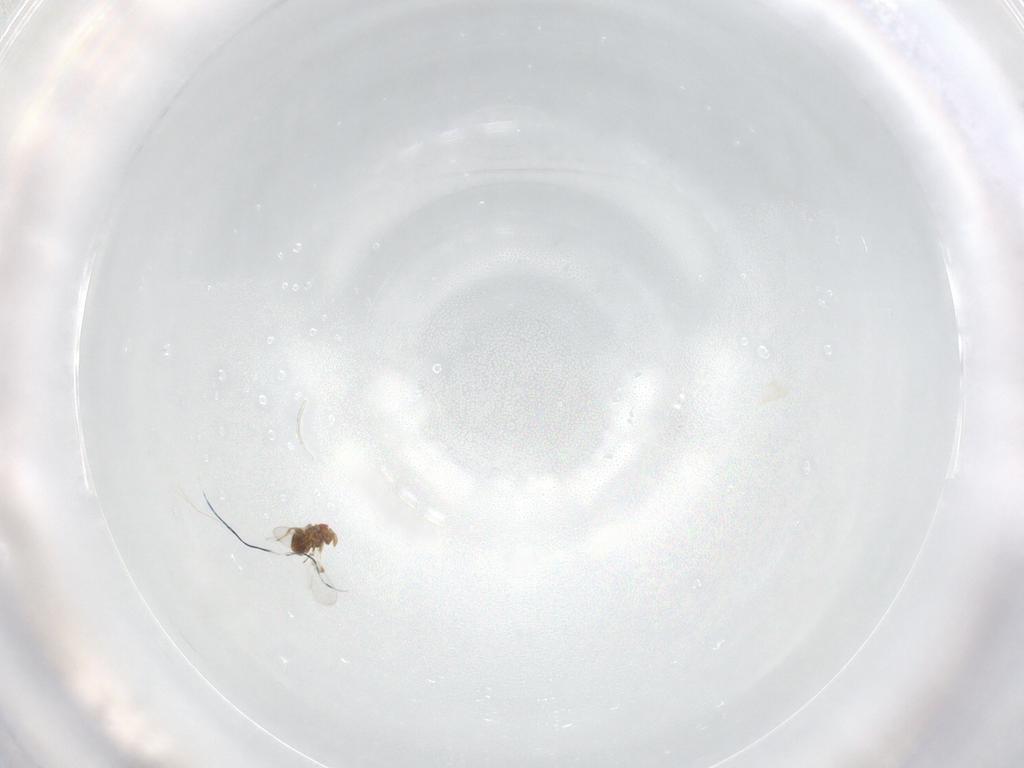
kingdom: Animalia
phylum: Arthropoda
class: Insecta
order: Hymenoptera
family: Trichogrammatidae
